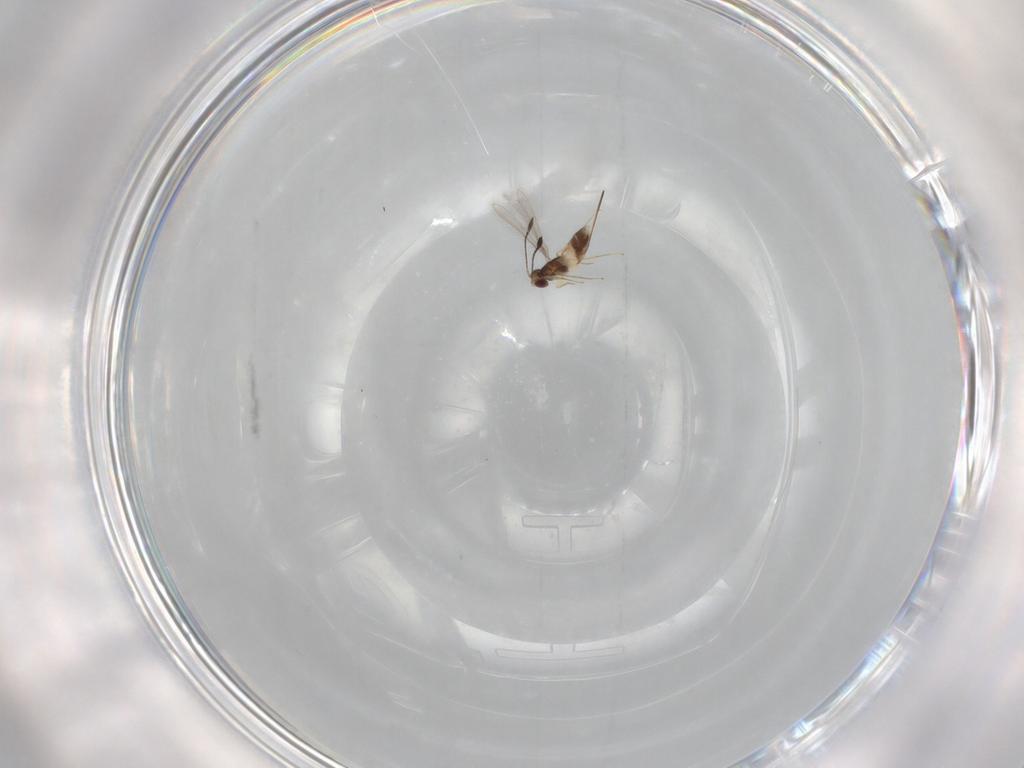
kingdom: Animalia
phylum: Arthropoda
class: Insecta
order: Hymenoptera
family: Mymaridae
